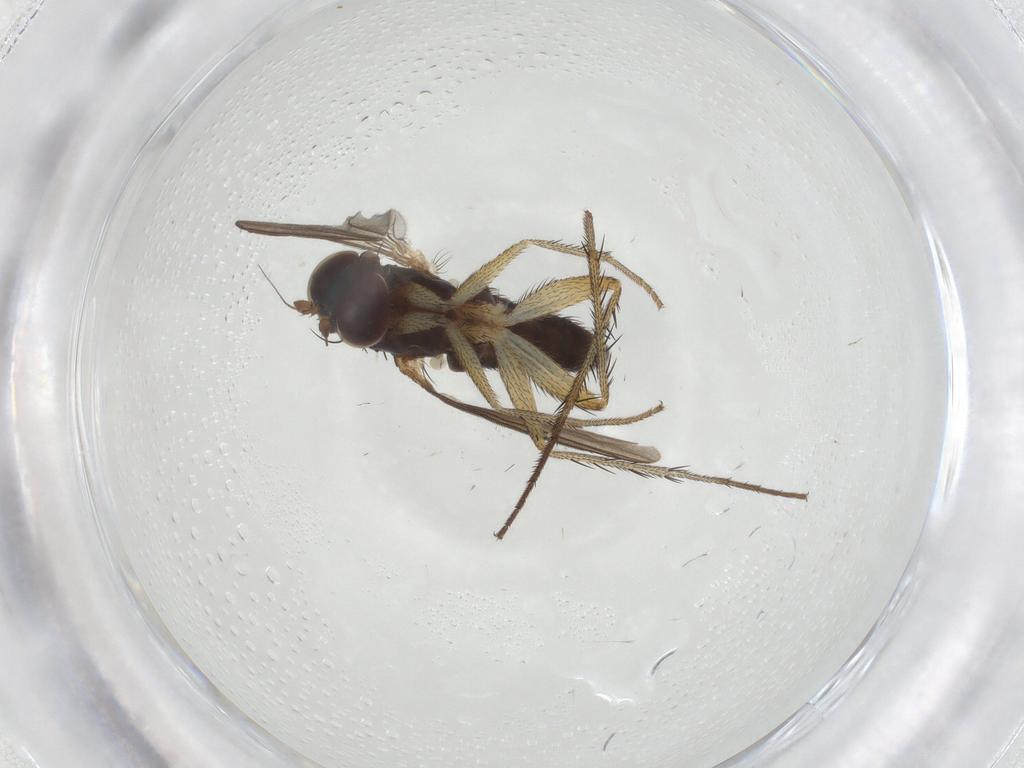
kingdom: Animalia
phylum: Arthropoda
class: Insecta
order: Diptera
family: Dolichopodidae
